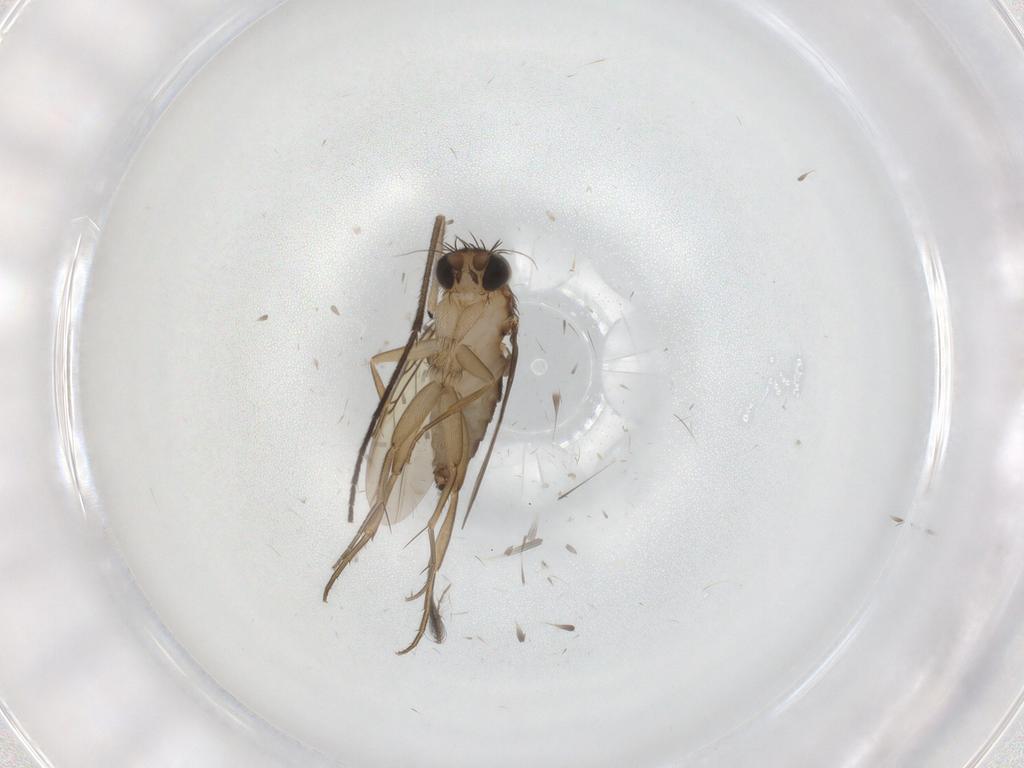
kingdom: Animalia
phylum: Arthropoda
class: Insecta
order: Diptera
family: Phoridae
